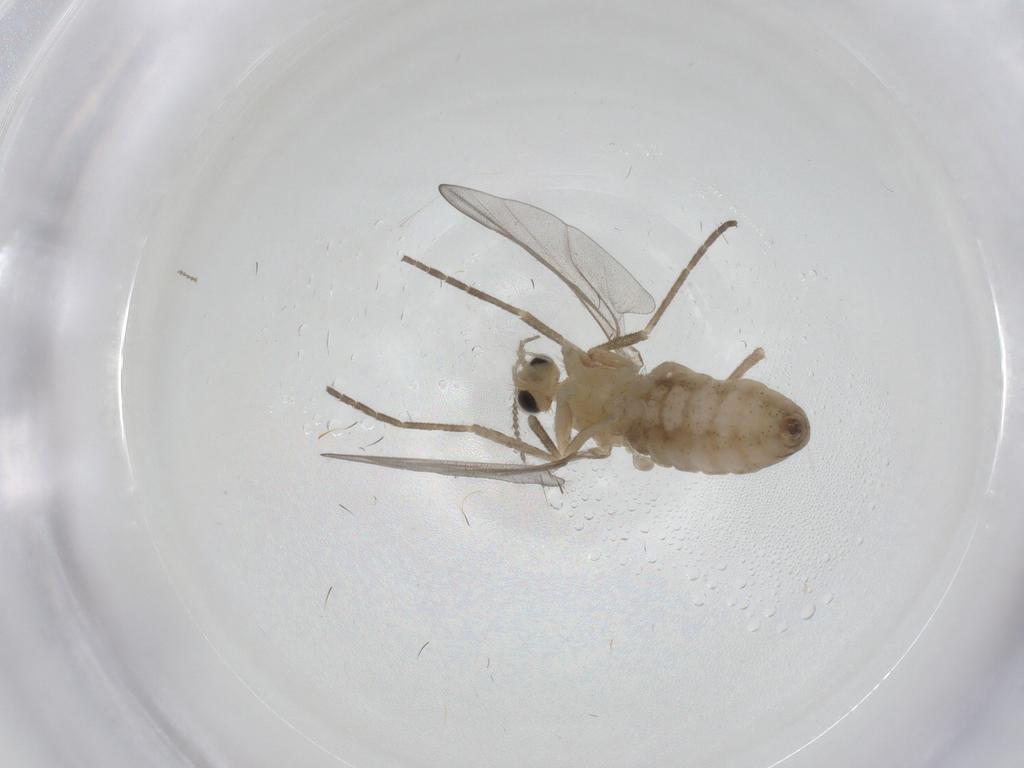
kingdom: Animalia
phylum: Arthropoda
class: Insecta
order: Diptera
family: Cecidomyiidae
